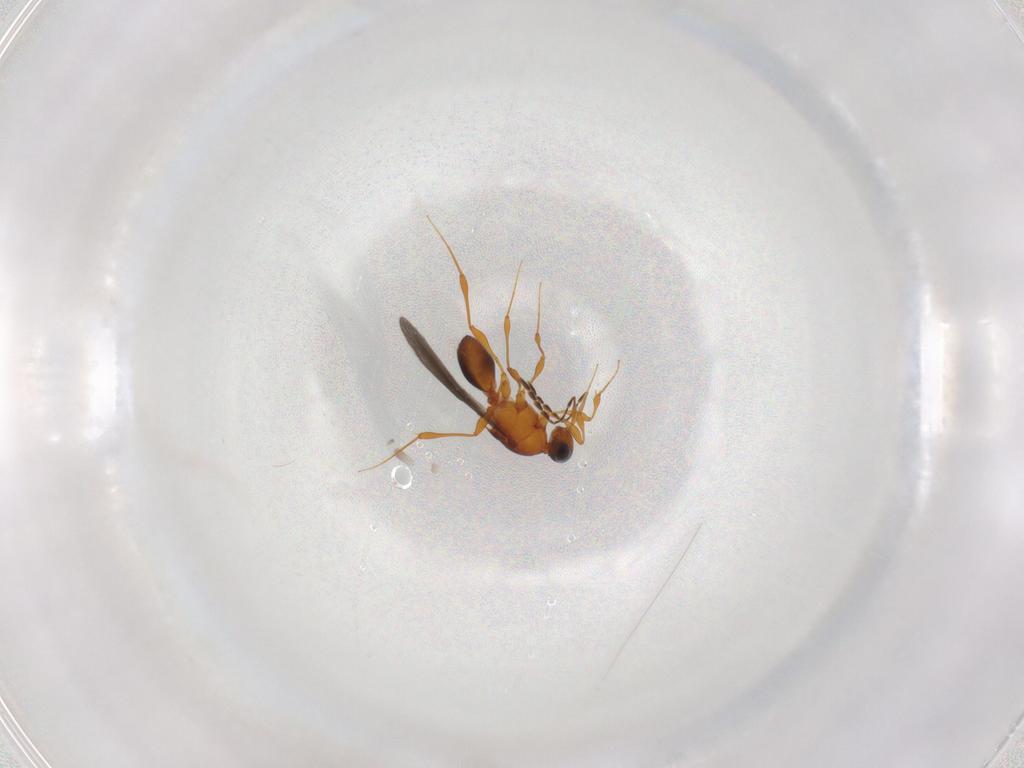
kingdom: Animalia
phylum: Arthropoda
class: Insecta
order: Hymenoptera
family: Platygastridae
